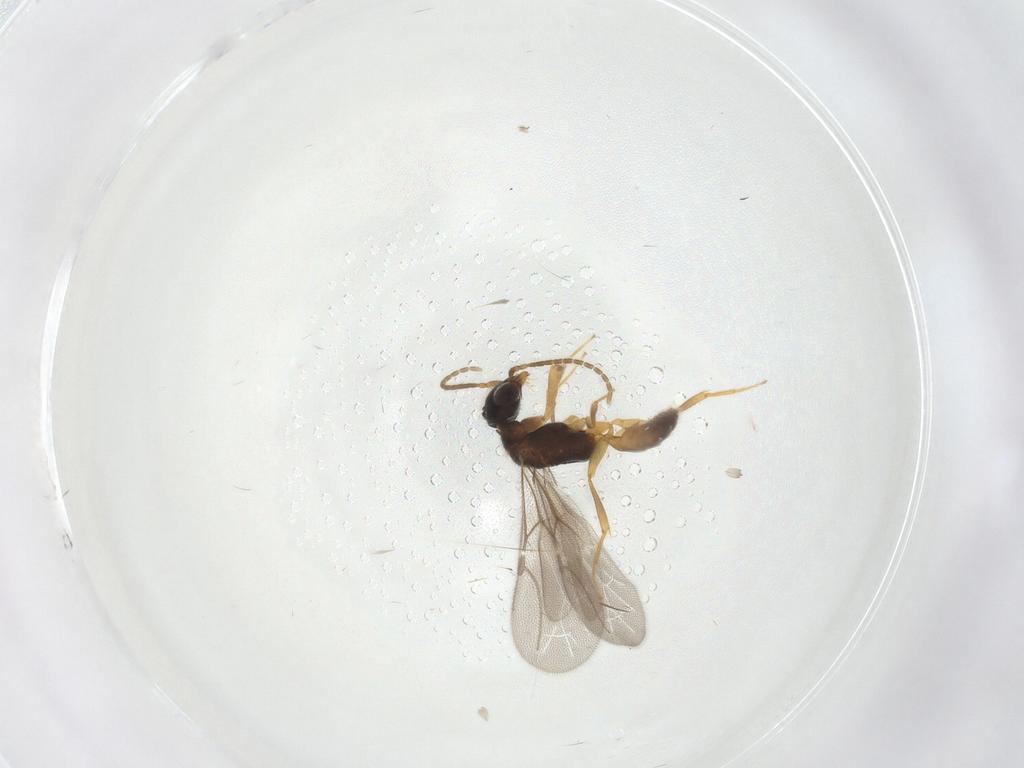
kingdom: Animalia
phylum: Arthropoda
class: Insecta
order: Hymenoptera
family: Bethylidae
